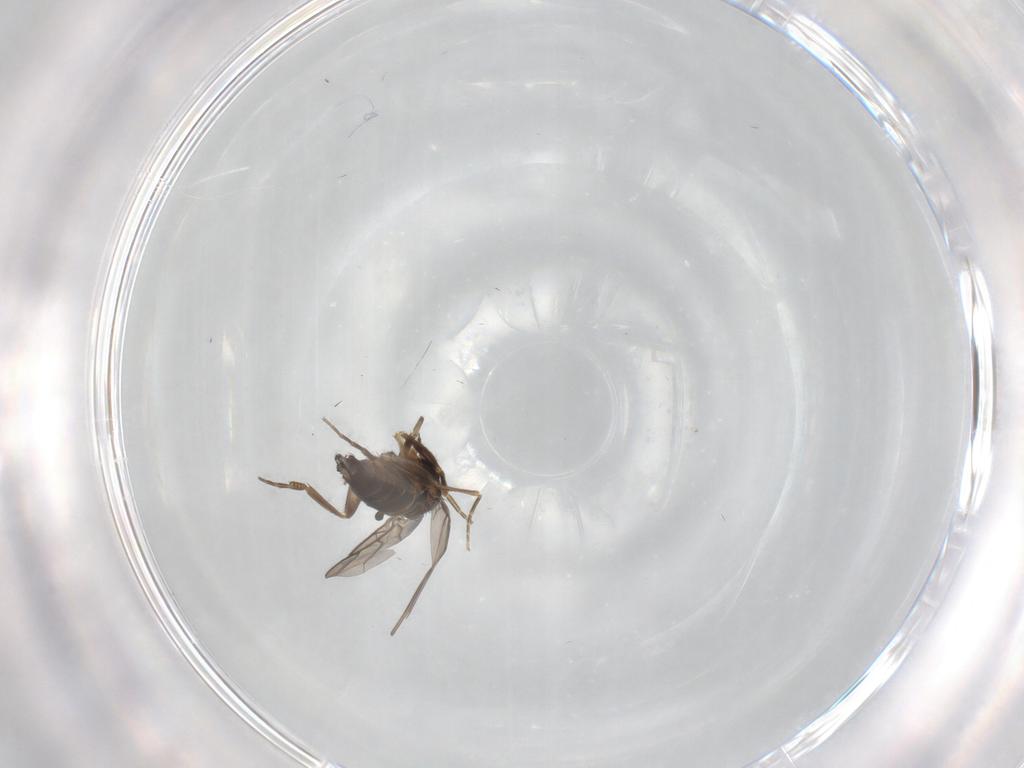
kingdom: Animalia
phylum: Arthropoda
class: Insecta
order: Diptera
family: Phoridae
